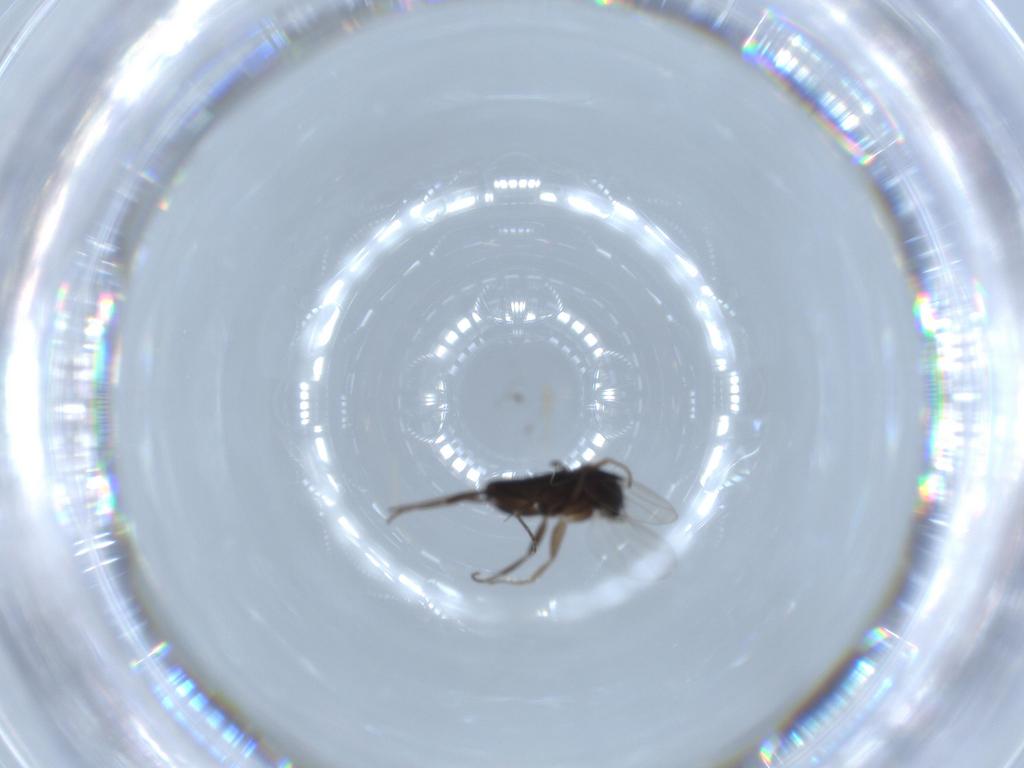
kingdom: Animalia
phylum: Arthropoda
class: Insecta
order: Diptera
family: Phoridae
